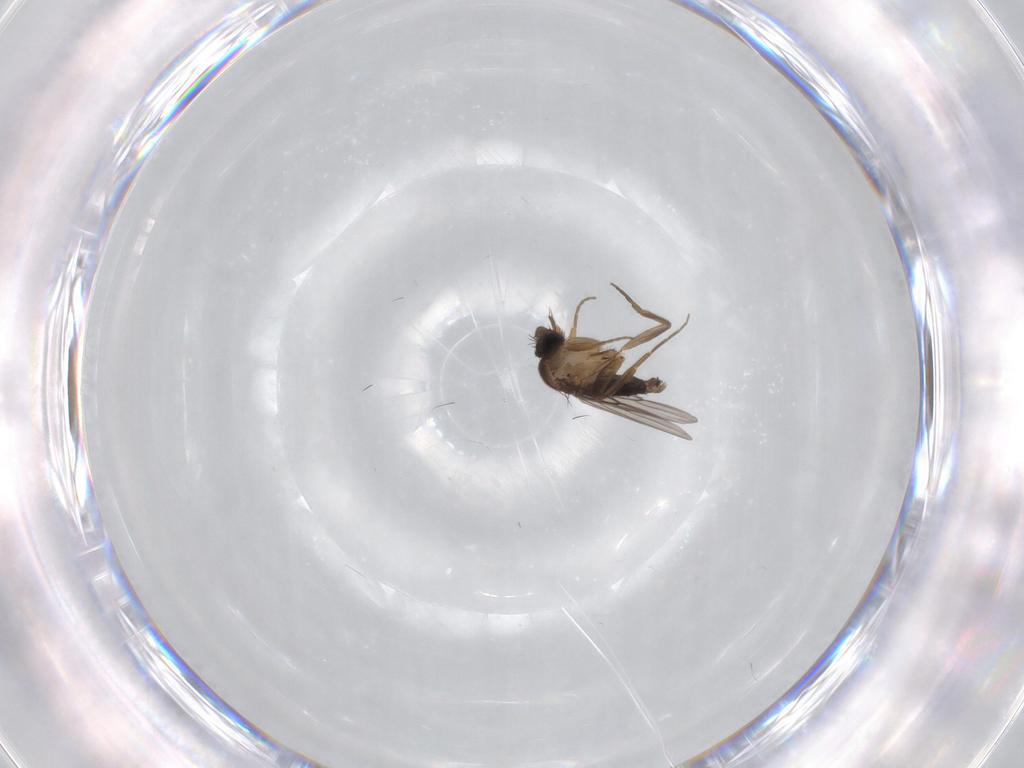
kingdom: Animalia
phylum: Arthropoda
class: Insecta
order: Diptera
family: Phoridae
